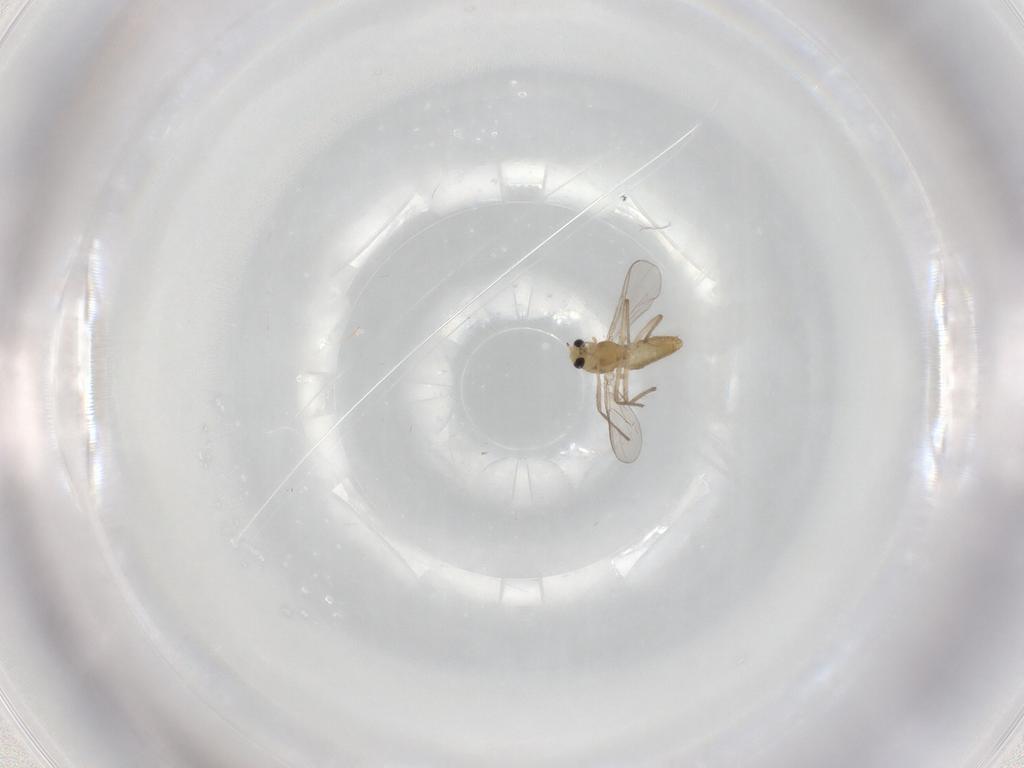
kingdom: Animalia
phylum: Arthropoda
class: Insecta
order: Diptera
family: Chironomidae
